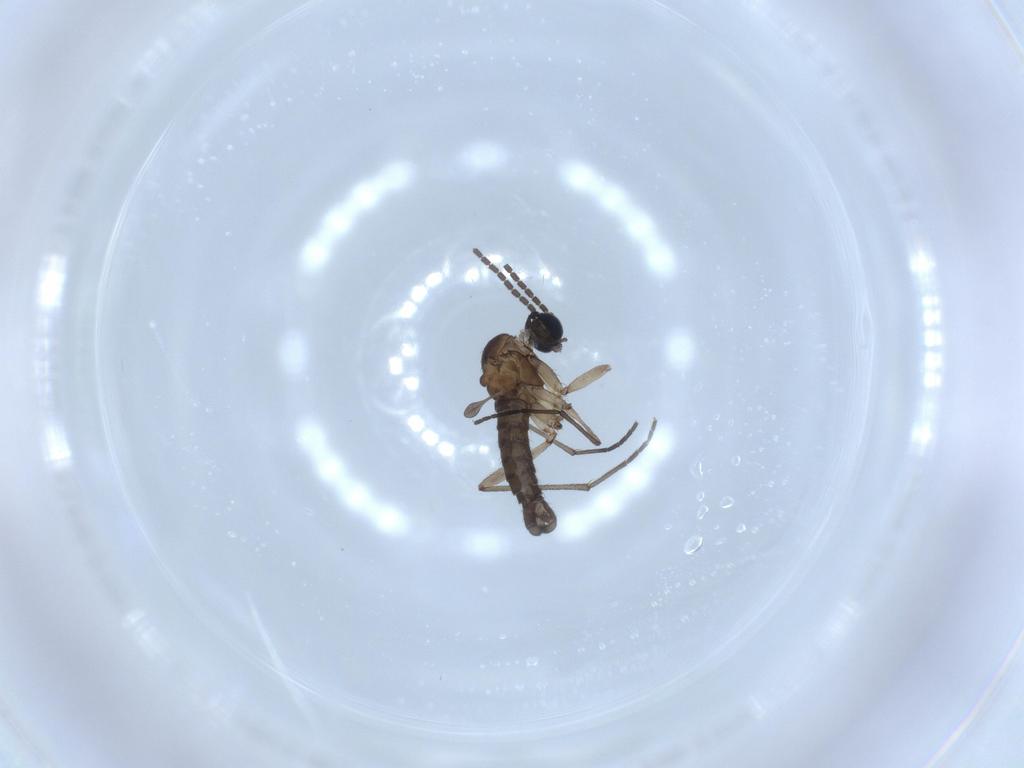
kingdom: Animalia
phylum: Arthropoda
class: Insecta
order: Diptera
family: Sciaridae
